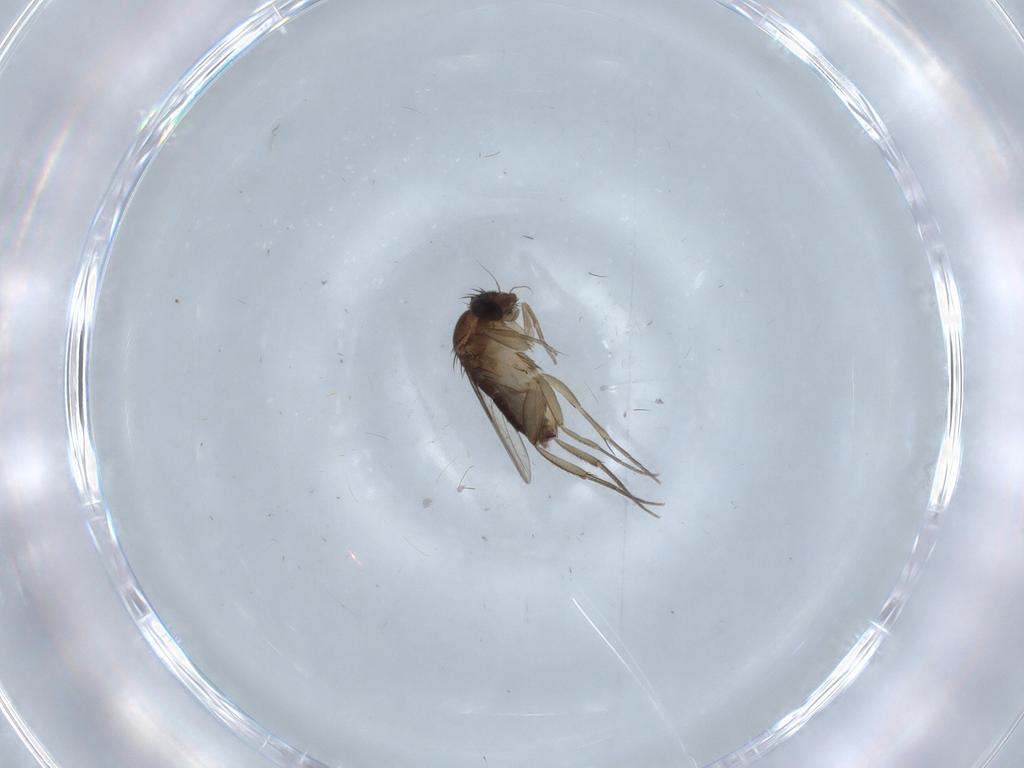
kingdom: Animalia
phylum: Arthropoda
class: Insecta
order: Diptera
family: Phoridae
